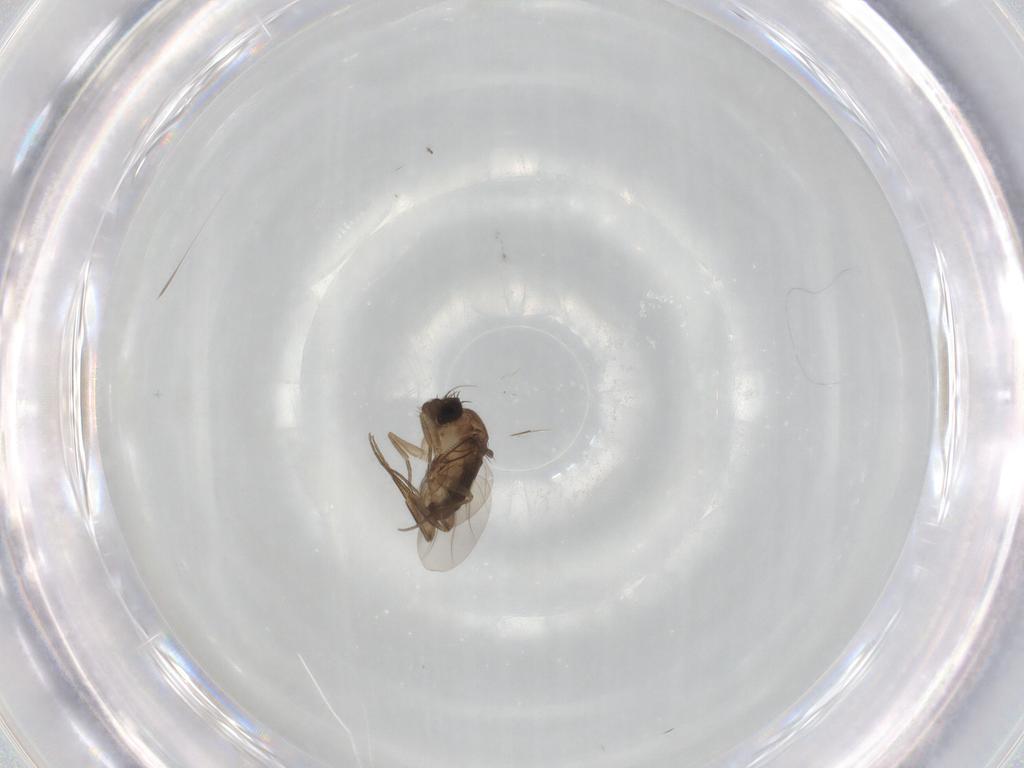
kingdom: Animalia
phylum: Arthropoda
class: Insecta
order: Diptera
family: Phoridae
